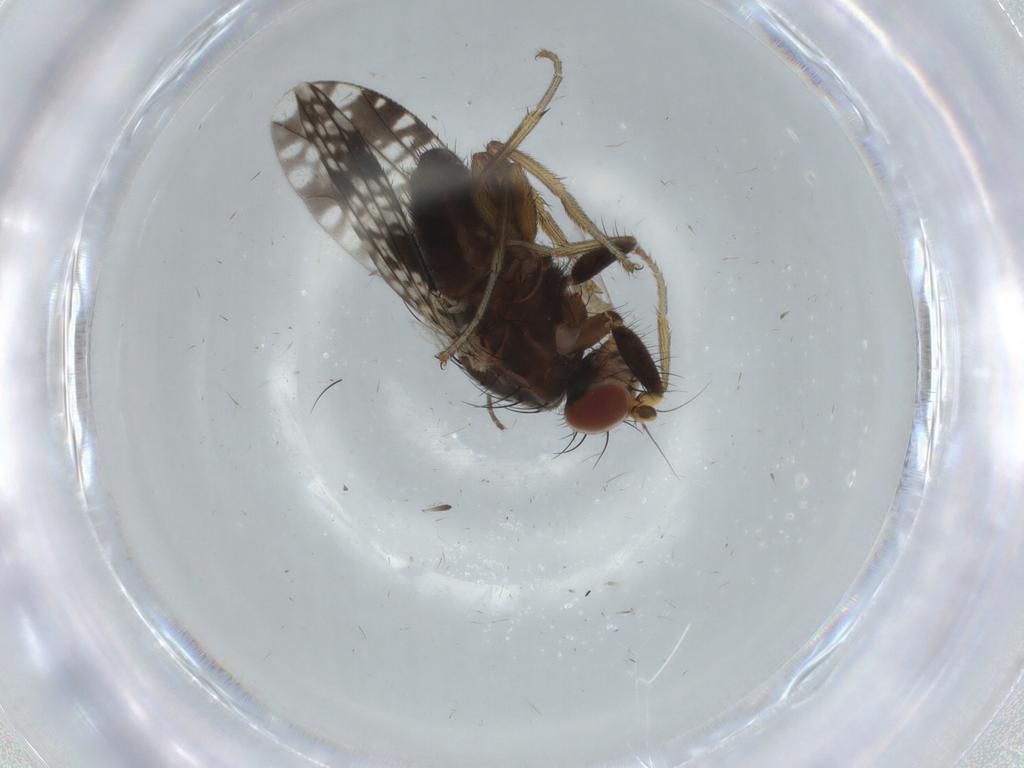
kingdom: Animalia
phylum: Arthropoda
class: Insecta
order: Diptera
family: Tephritidae
